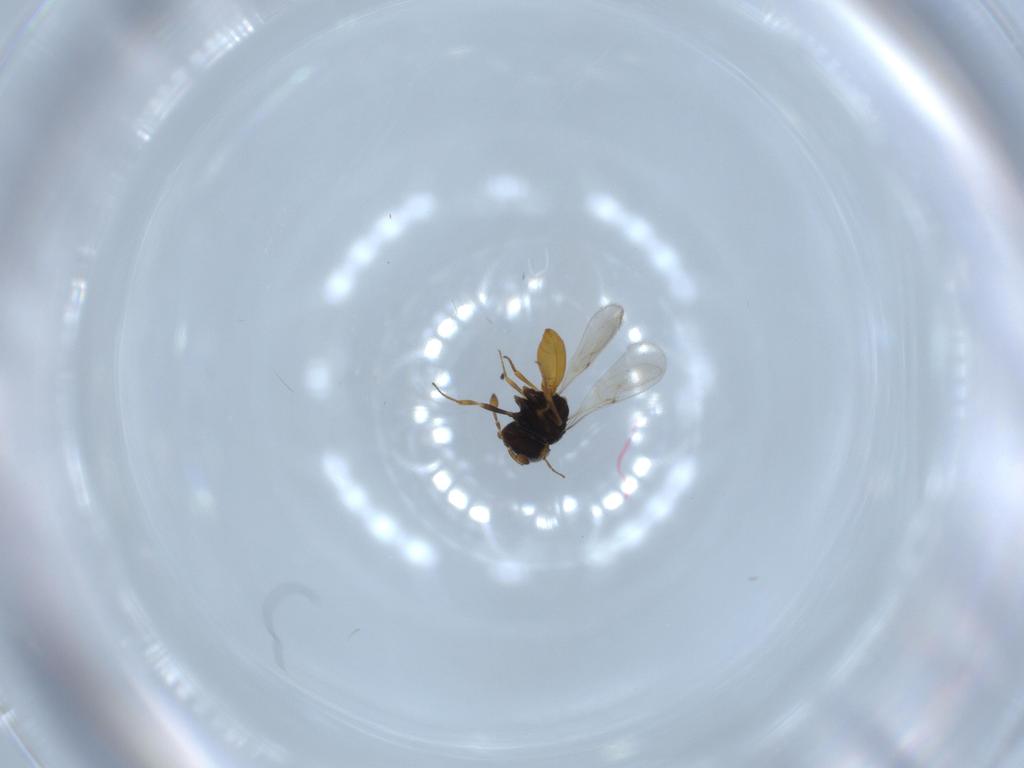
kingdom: Animalia
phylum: Arthropoda
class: Insecta
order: Hymenoptera
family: Scelionidae
